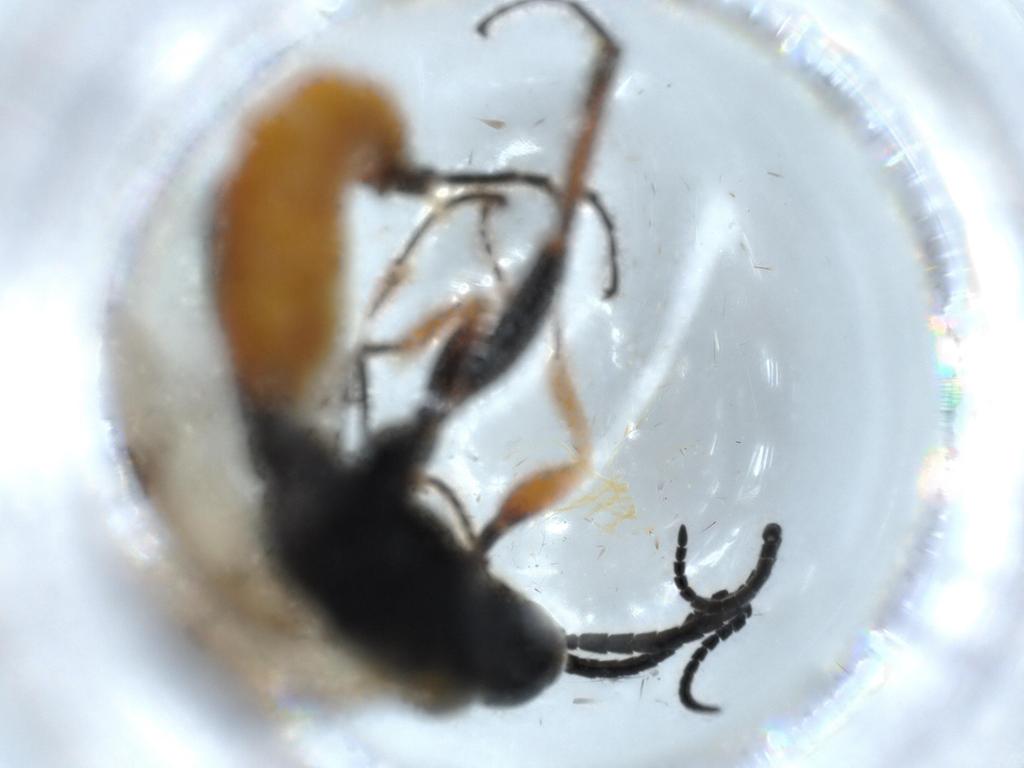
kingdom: Animalia
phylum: Arthropoda
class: Insecta
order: Hymenoptera
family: Ichneumonidae
